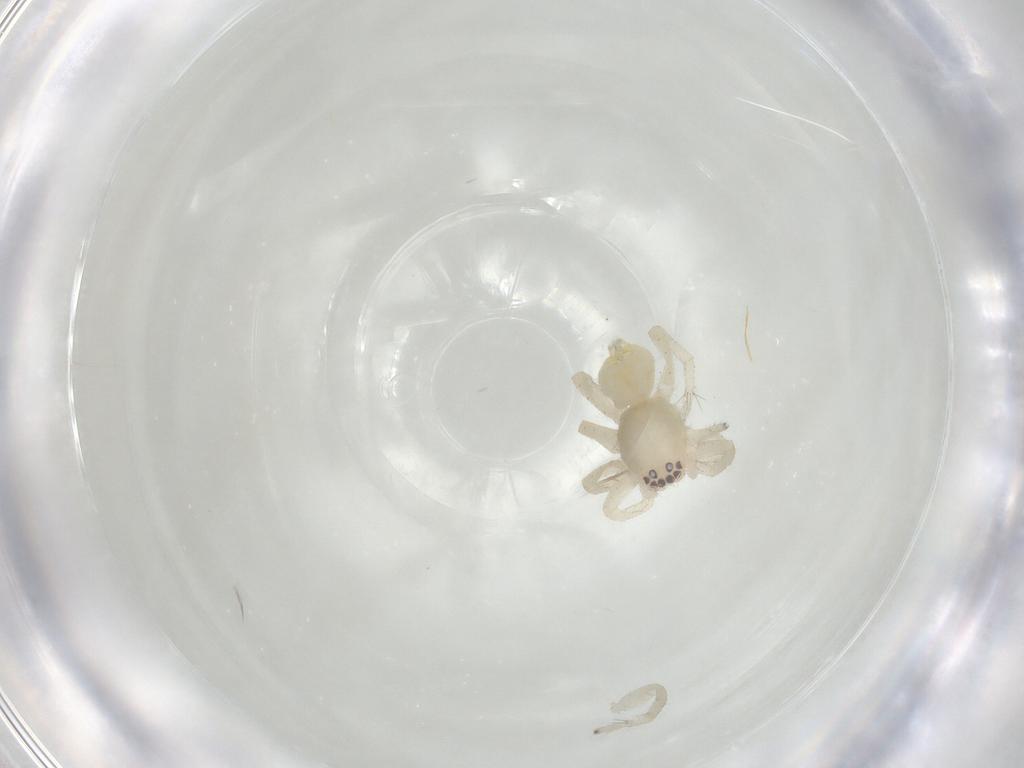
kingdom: Animalia
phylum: Arthropoda
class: Arachnida
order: Araneae
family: Clubionidae
